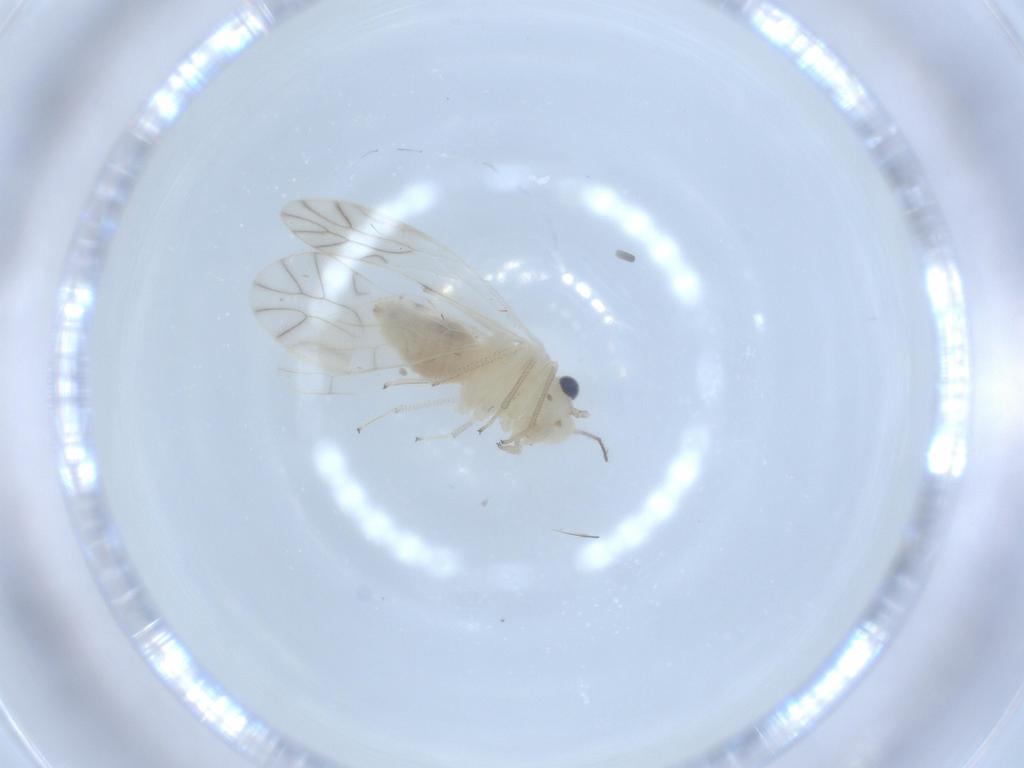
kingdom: Animalia
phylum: Arthropoda
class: Insecta
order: Psocodea
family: Caeciliusidae
